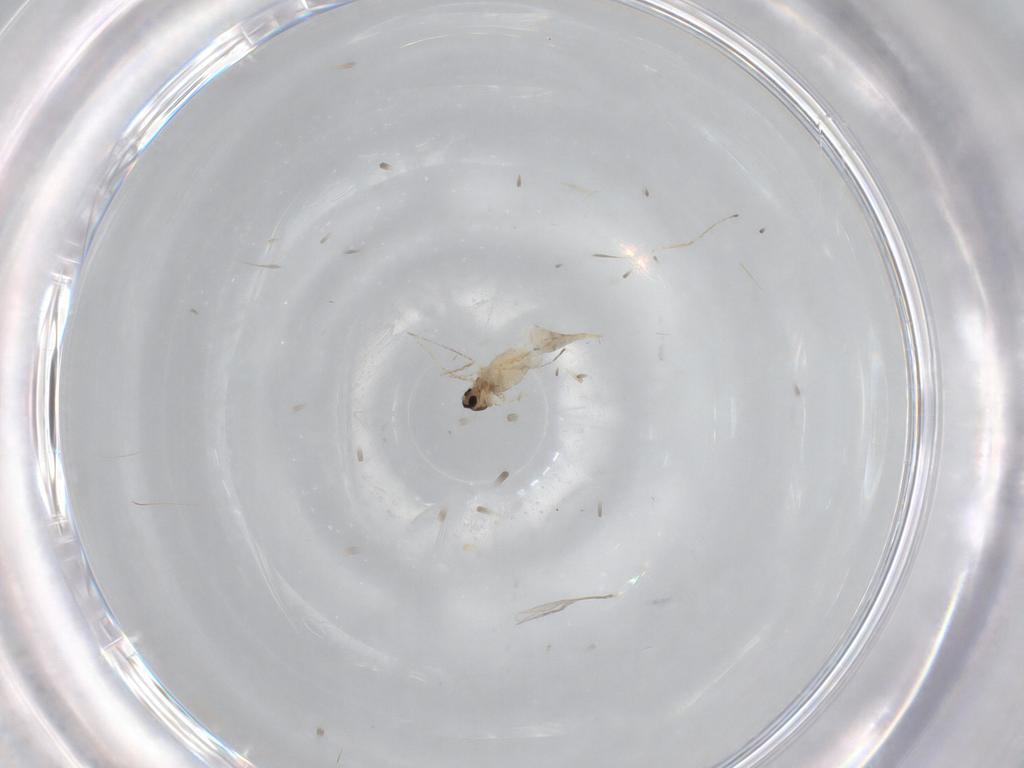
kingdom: Animalia
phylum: Arthropoda
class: Insecta
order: Diptera
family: Cecidomyiidae
